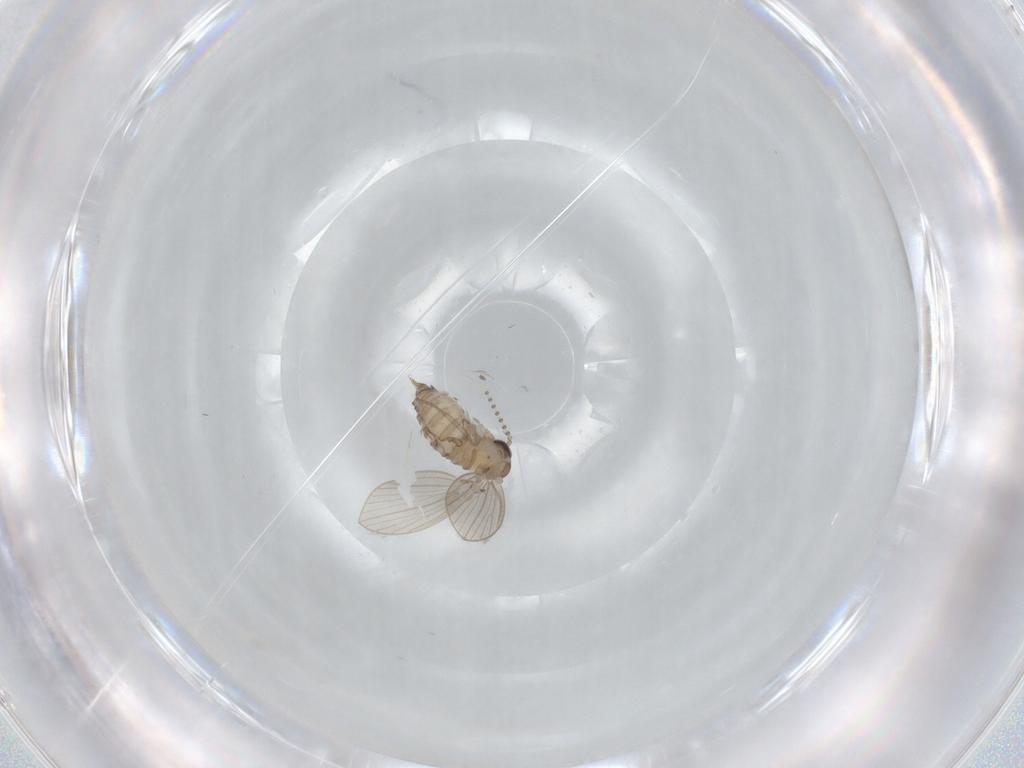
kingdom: Animalia
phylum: Arthropoda
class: Insecta
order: Diptera
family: Psychodidae
